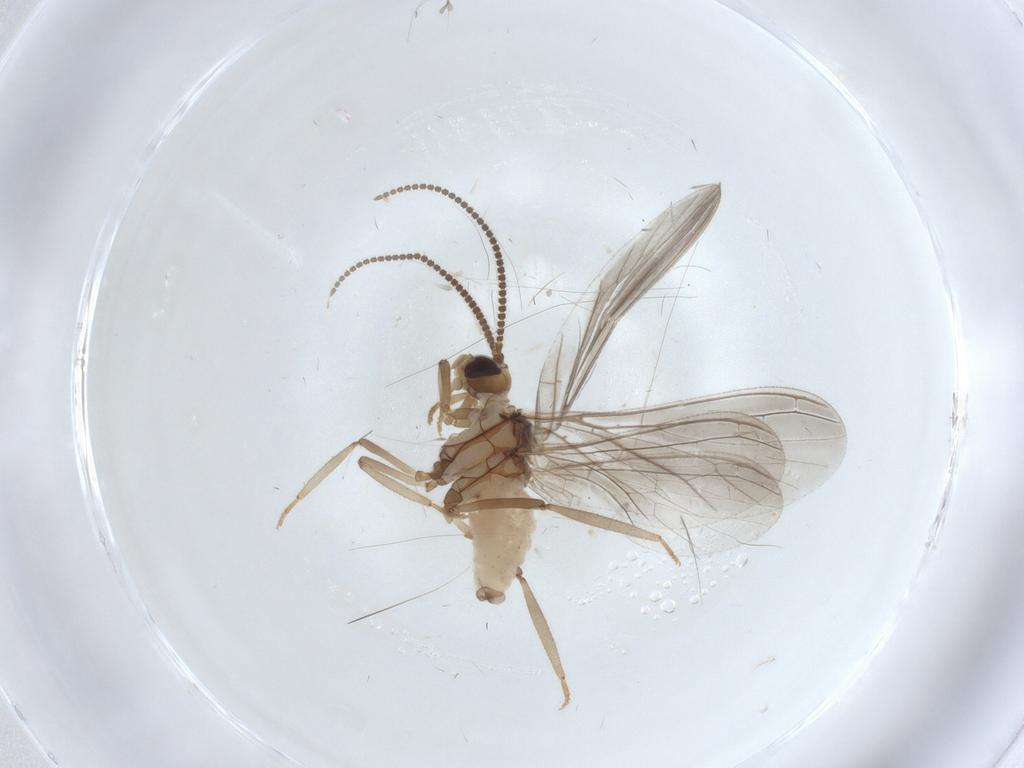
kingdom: Animalia
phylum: Arthropoda
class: Insecta
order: Neuroptera
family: Coniopterygidae
